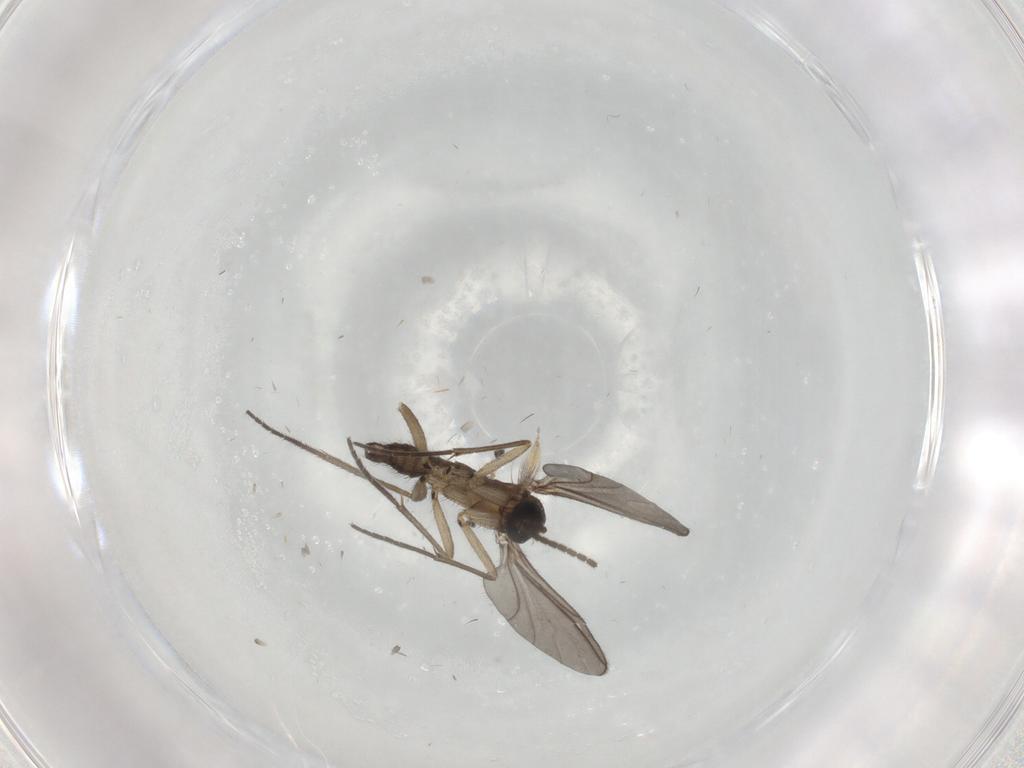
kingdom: Animalia
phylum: Arthropoda
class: Insecta
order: Diptera
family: Sciaridae
